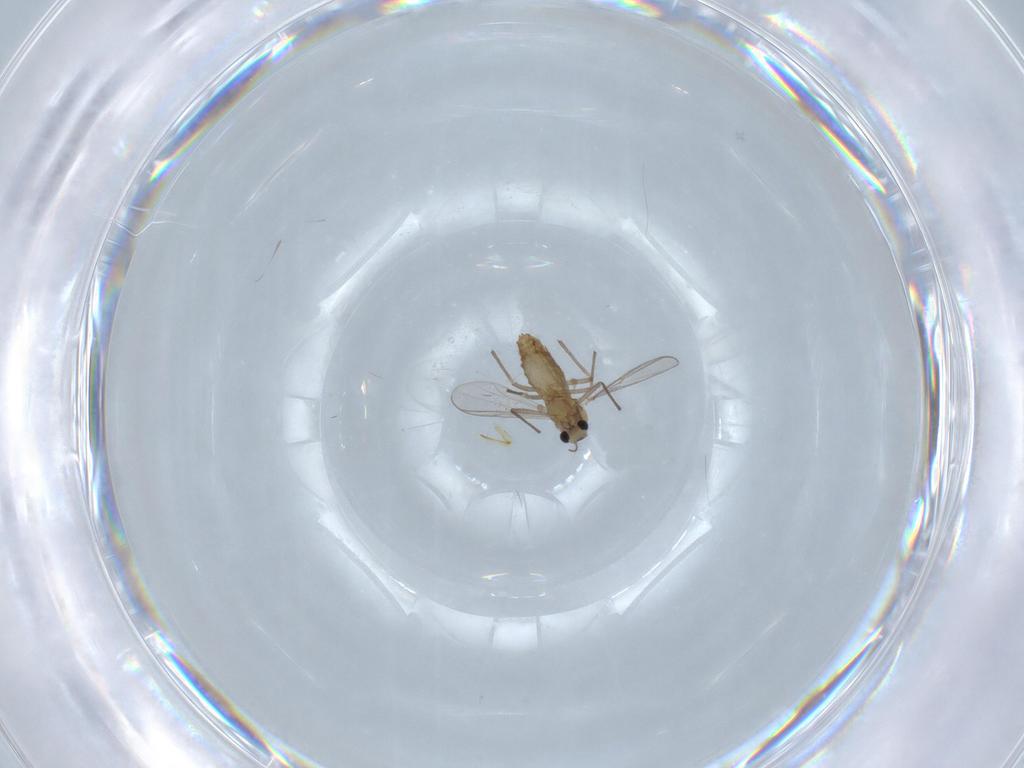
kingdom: Animalia
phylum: Arthropoda
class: Insecta
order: Diptera
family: Chironomidae
